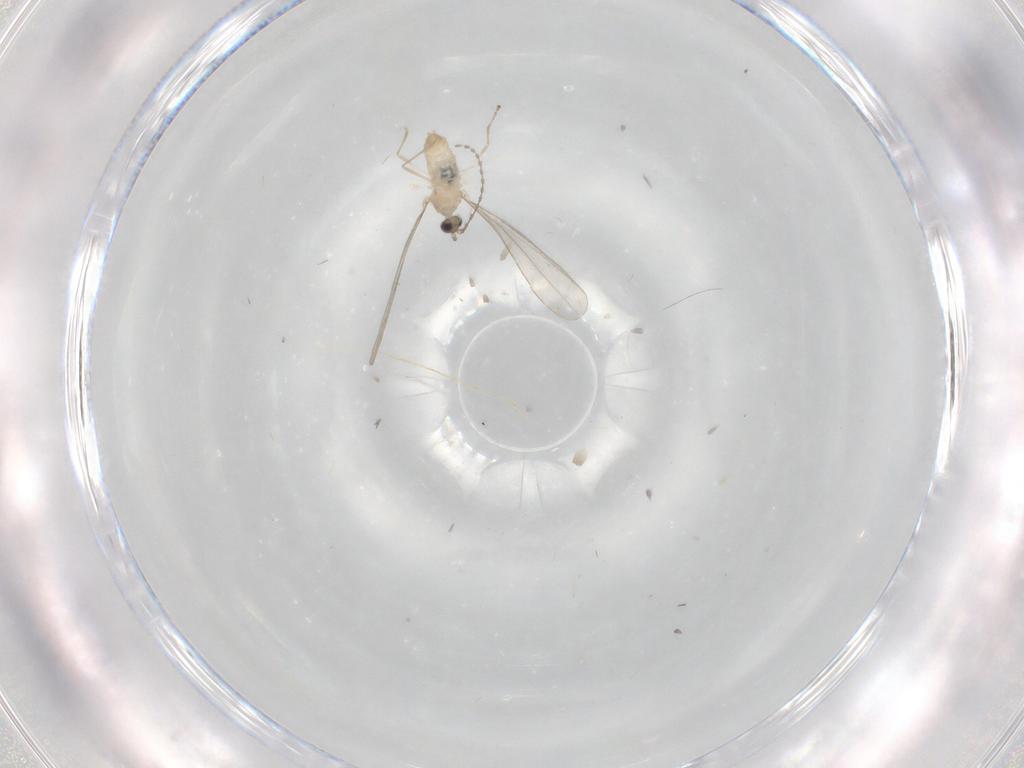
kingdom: Animalia
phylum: Arthropoda
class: Insecta
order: Diptera
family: Cecidomyiidae
